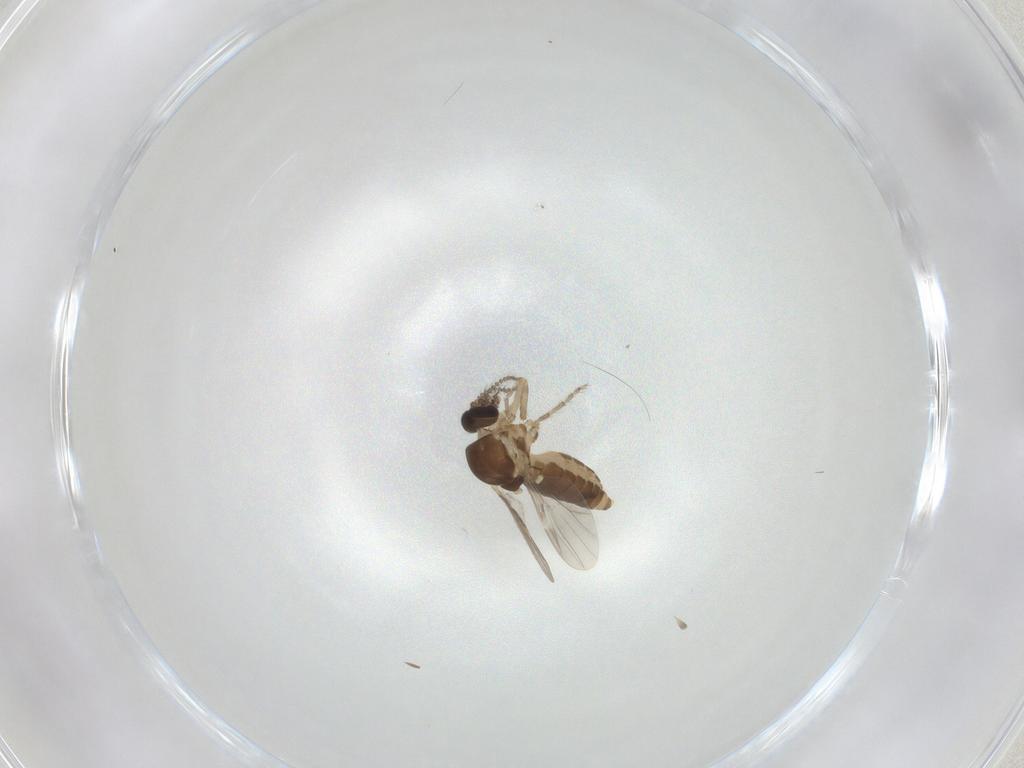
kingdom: Animalia
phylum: Arthropoda
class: Insecta
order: Diptera
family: Ceratopogonidae
